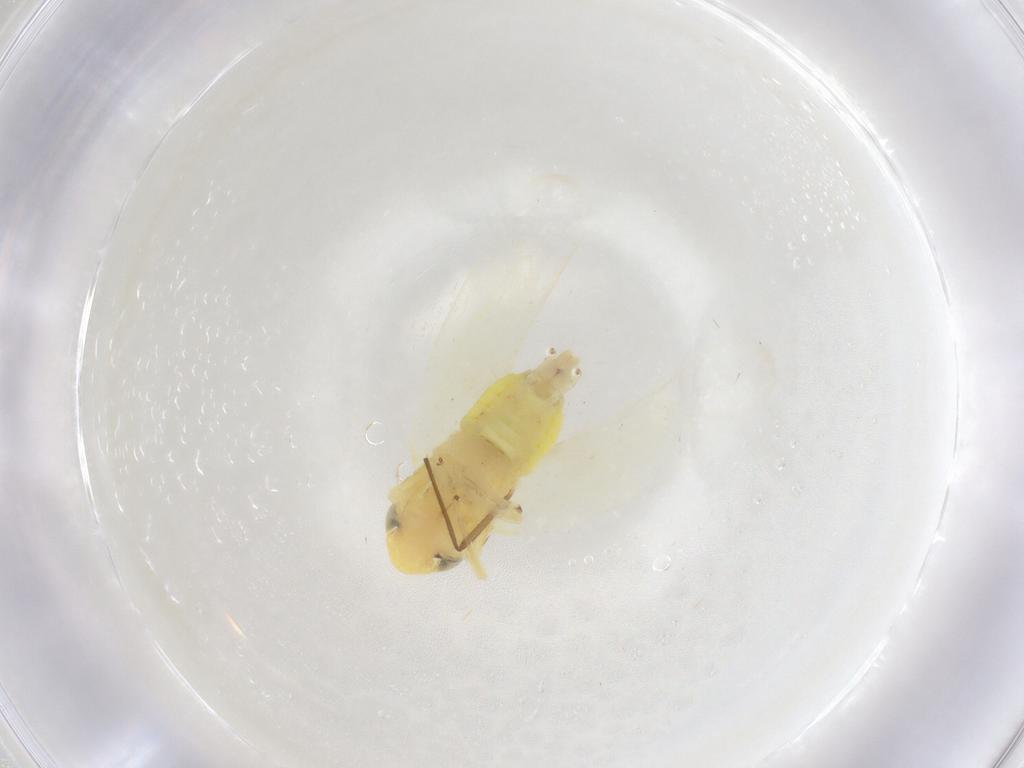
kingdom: Animalia
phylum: Arthropoda
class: Insecta
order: Hemiptera
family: Cicadellidae
